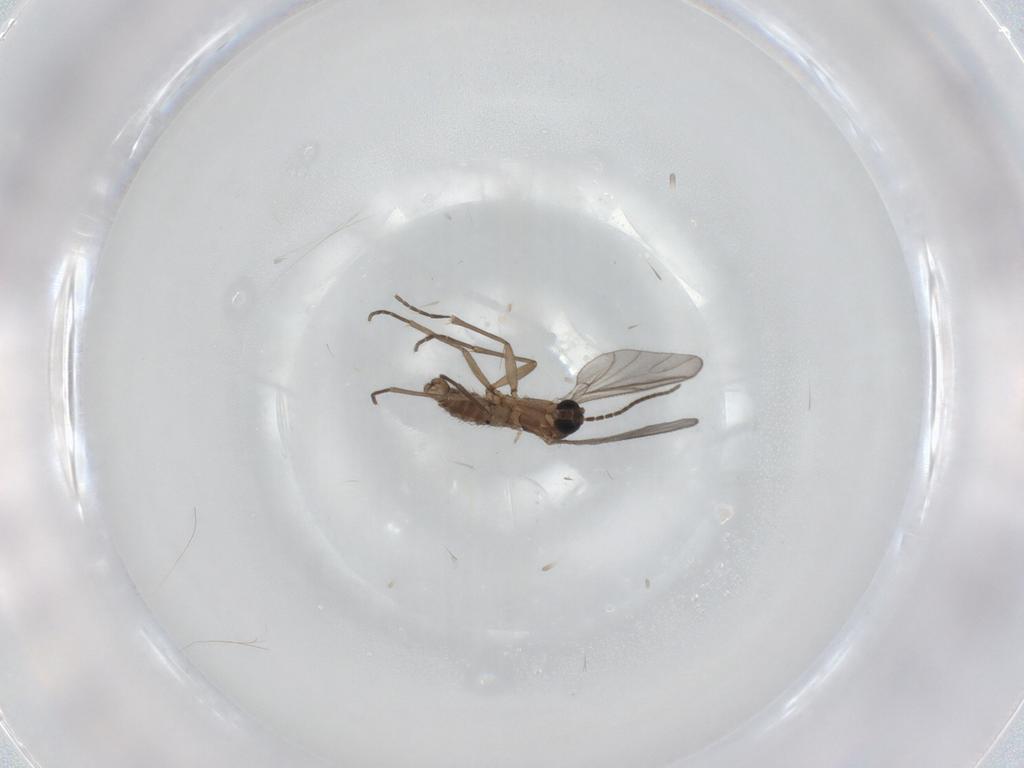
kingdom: Animalia
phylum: Arthropoda
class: Insecta
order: Diptera
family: Sciaridae
